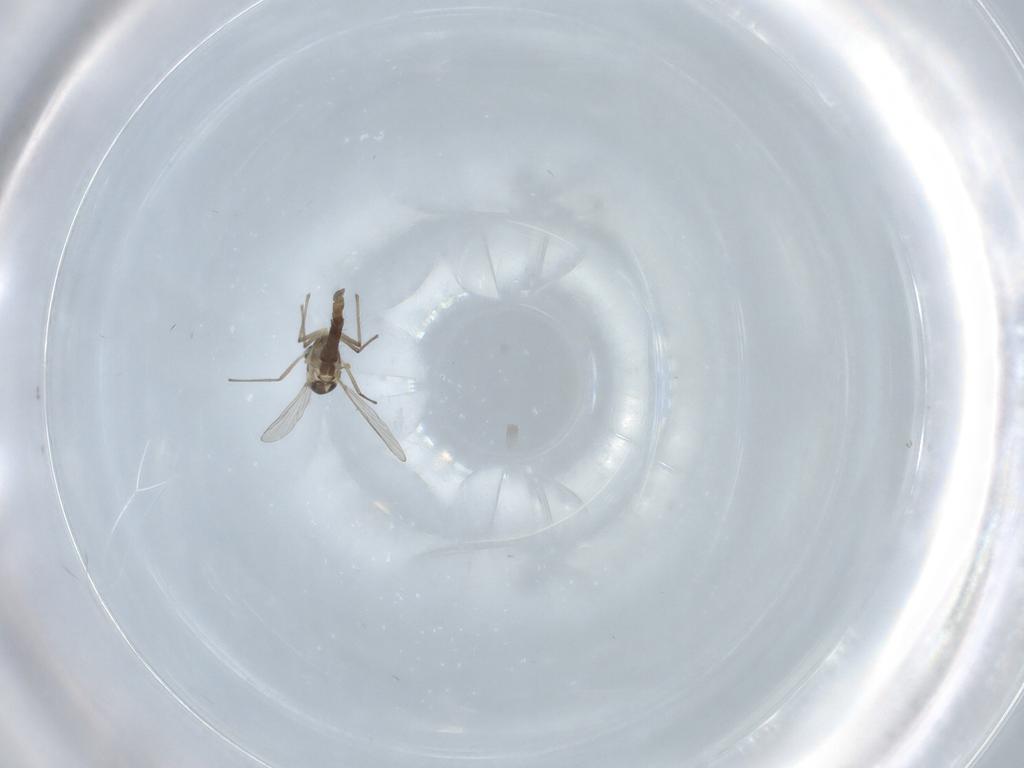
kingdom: Animalia
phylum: Arthropoda
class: Insecta
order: Diptera
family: Chironomidae
